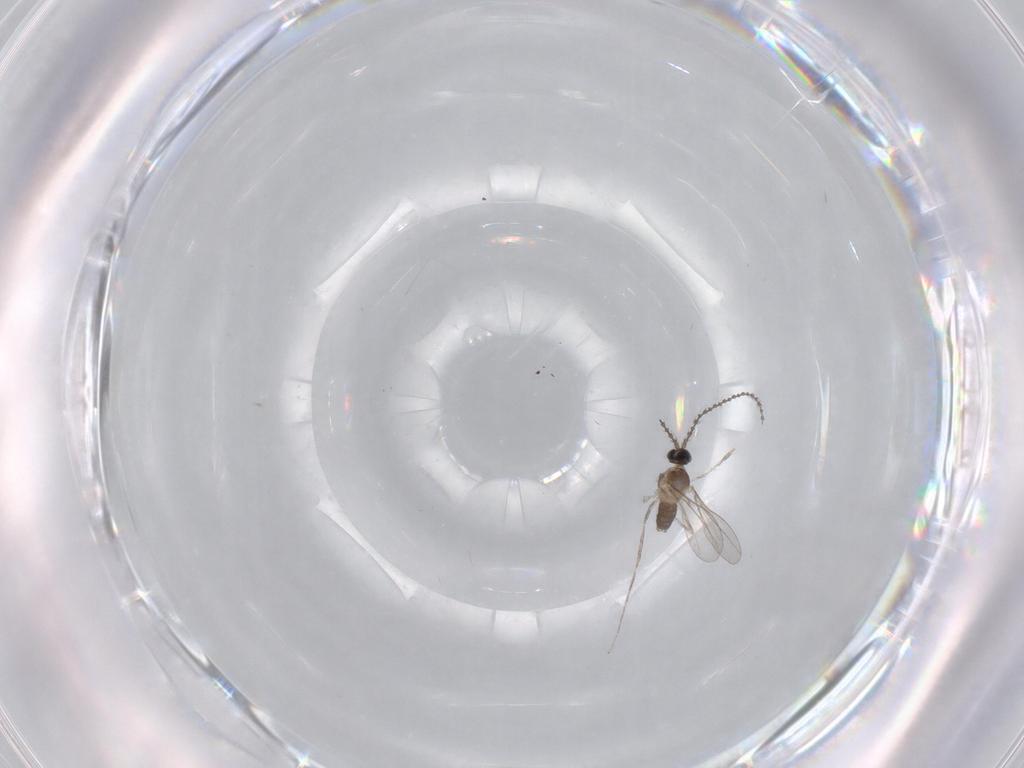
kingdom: Animalia
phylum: Arthropoda
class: Insecta
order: Diptera
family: Cecidomyiidae
